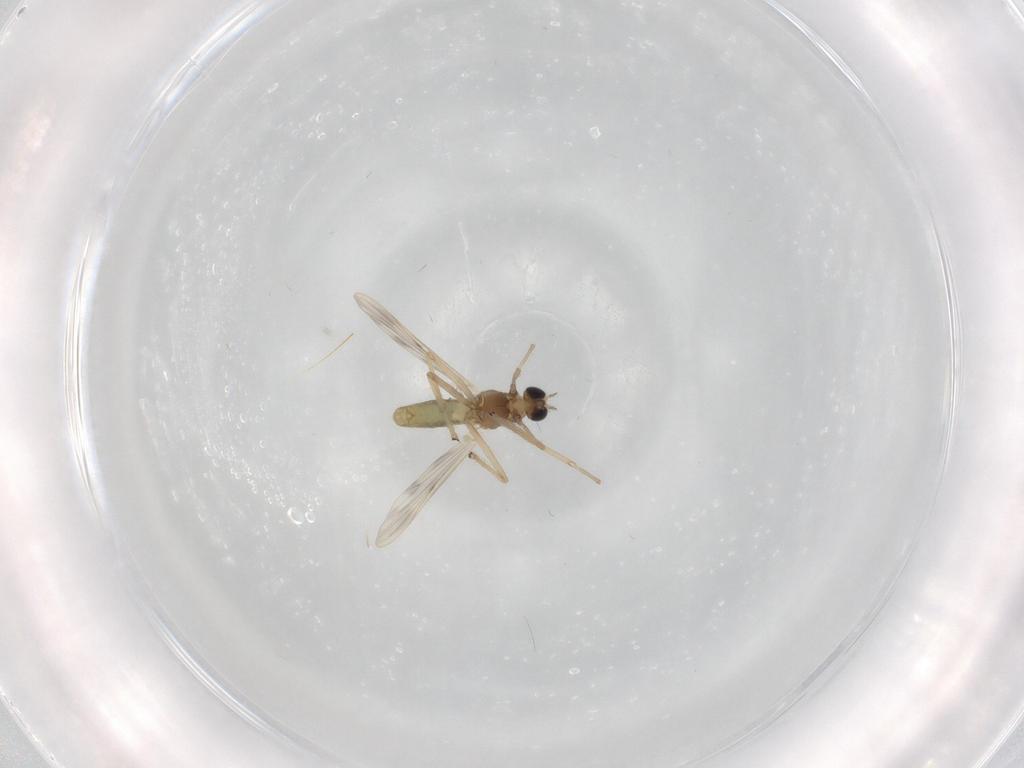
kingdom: Animalia
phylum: Arthropoda
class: Insecta
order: Diptera
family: Chironomidae
